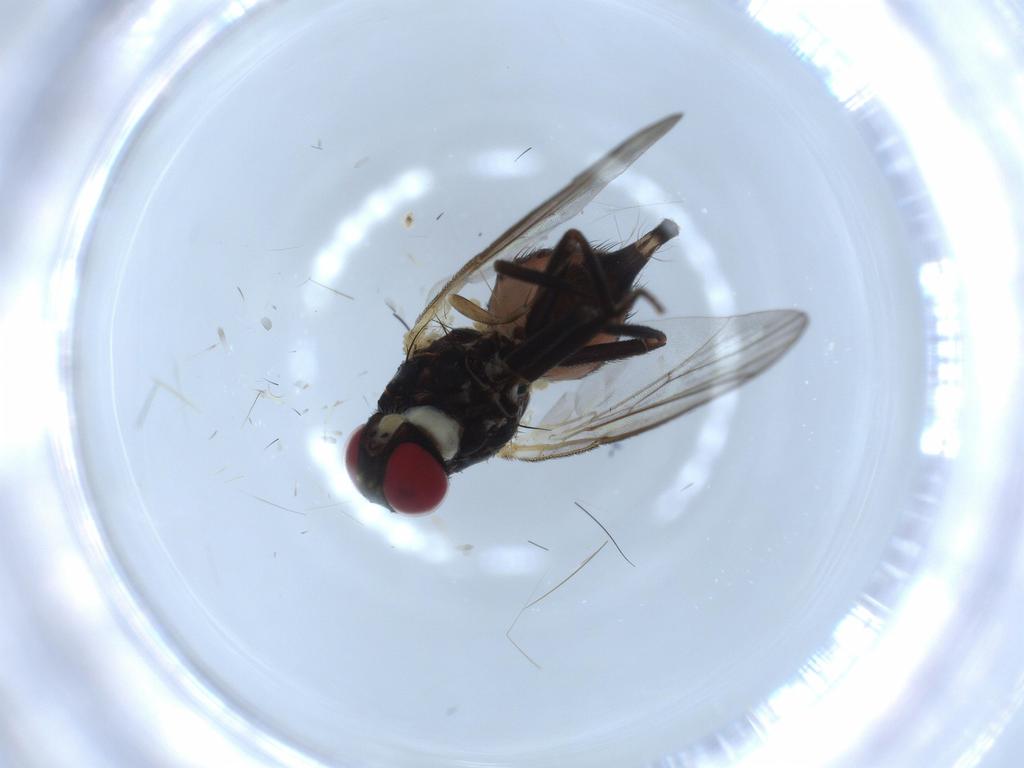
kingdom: Animalia
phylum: Arthropoda
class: Insecta
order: Diptera
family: Agromyzidae
